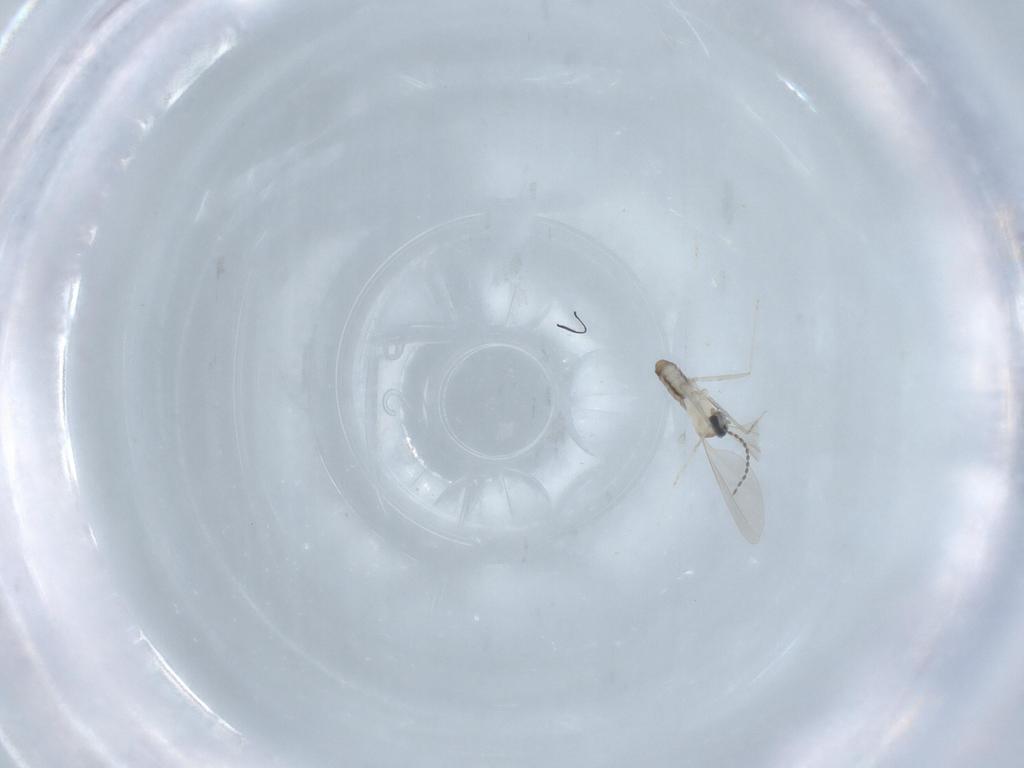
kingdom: Animalia
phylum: Arthropoda
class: Insecta
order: Diptera
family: Cecidomyiidae
